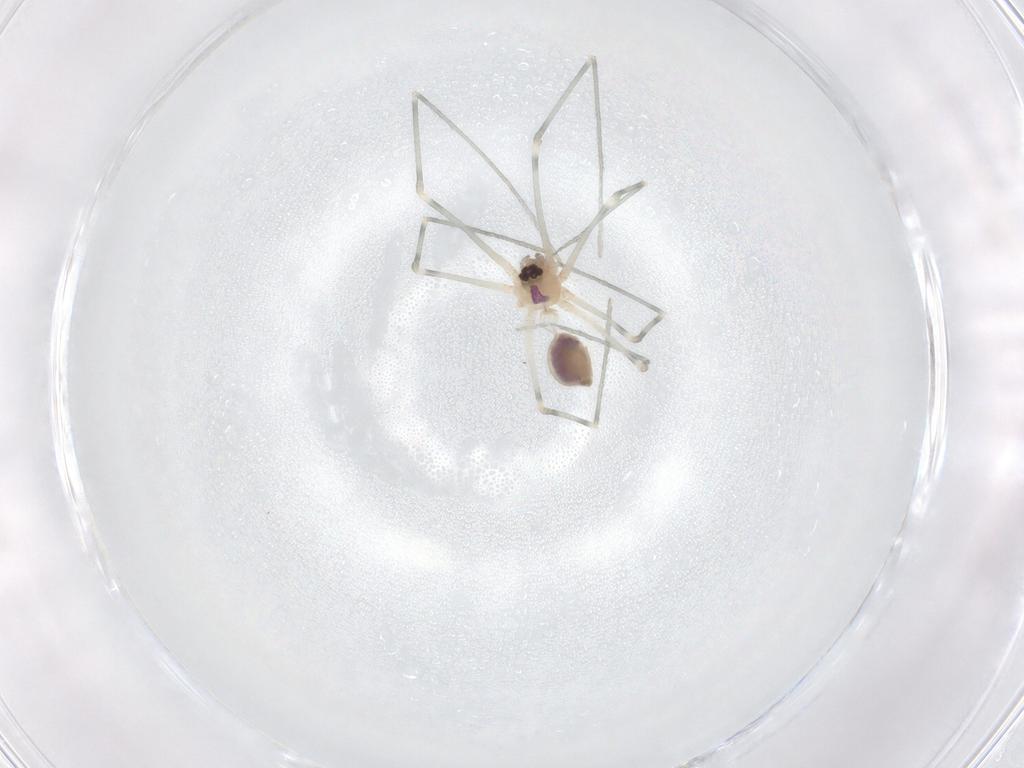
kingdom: Animalia
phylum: Arthropoda
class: Arachnida
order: Araneae
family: Pholcidae
